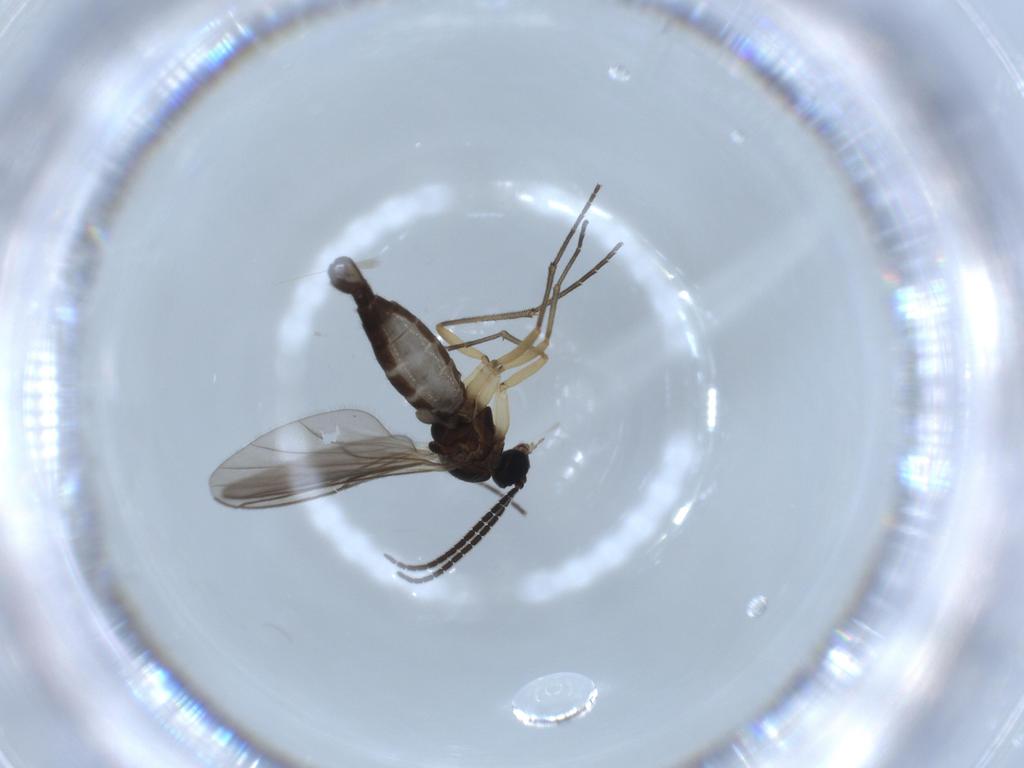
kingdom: Animalia
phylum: Arthropoda
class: Insecta
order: Diptera
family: Sciaridae
